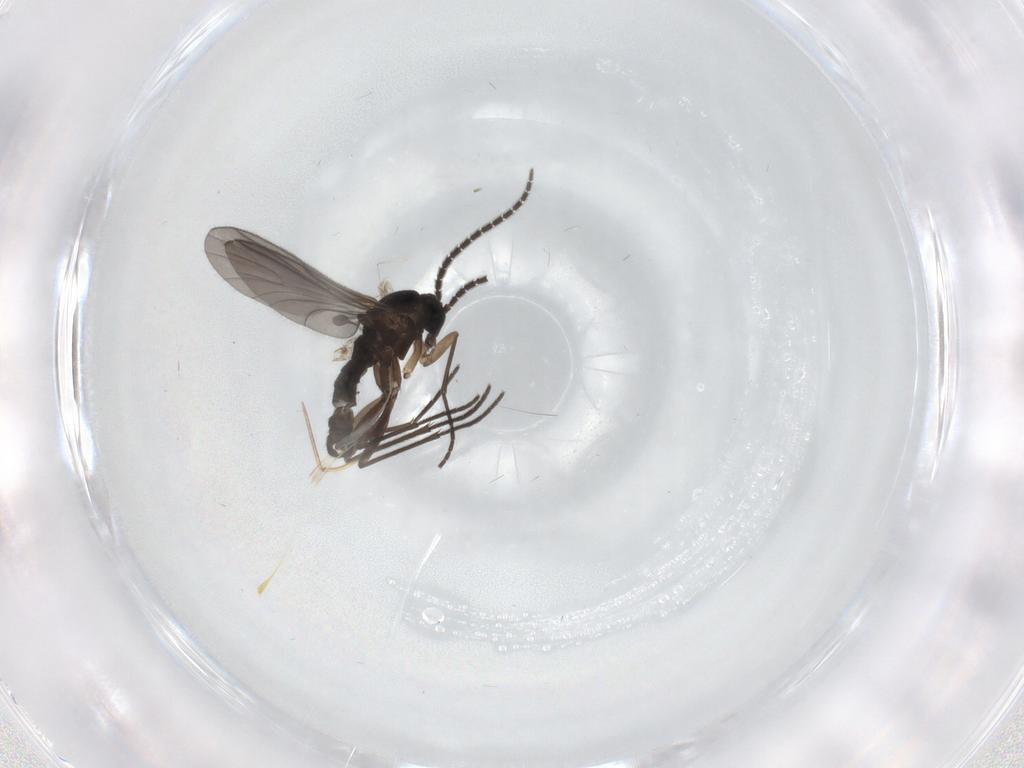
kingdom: Animalia
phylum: Arthropoda
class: Insecta
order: Diptera
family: Sciaridae
